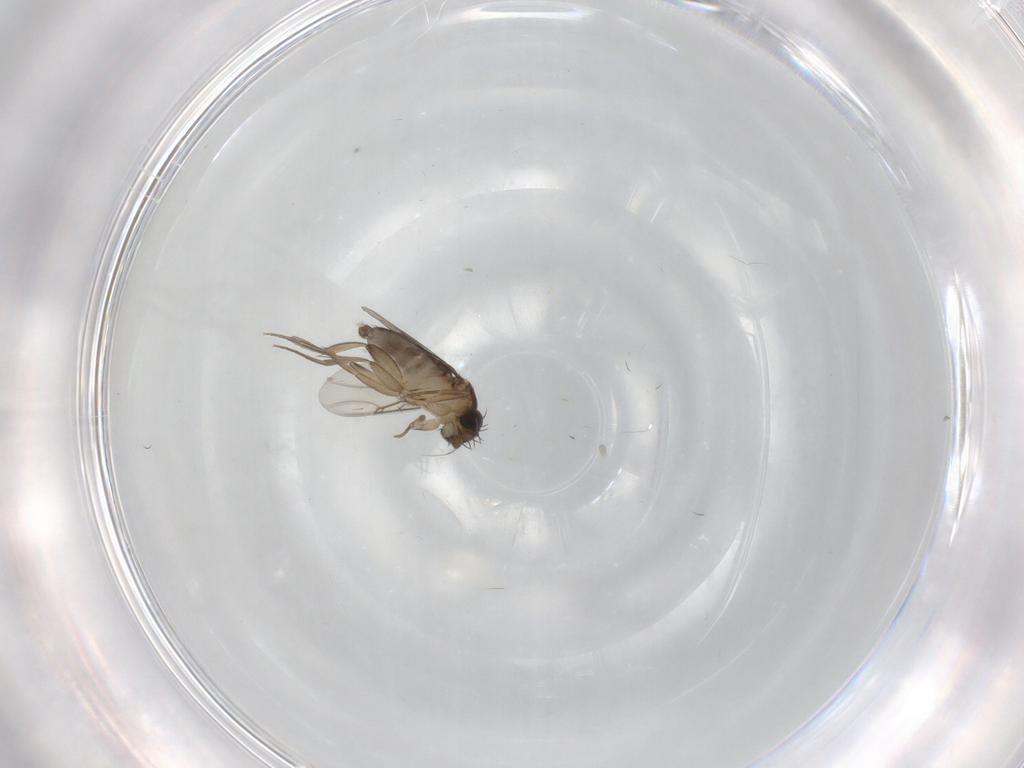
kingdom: Animalia
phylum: Arthropoda
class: Insecta
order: Diptera
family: Chironomidae
